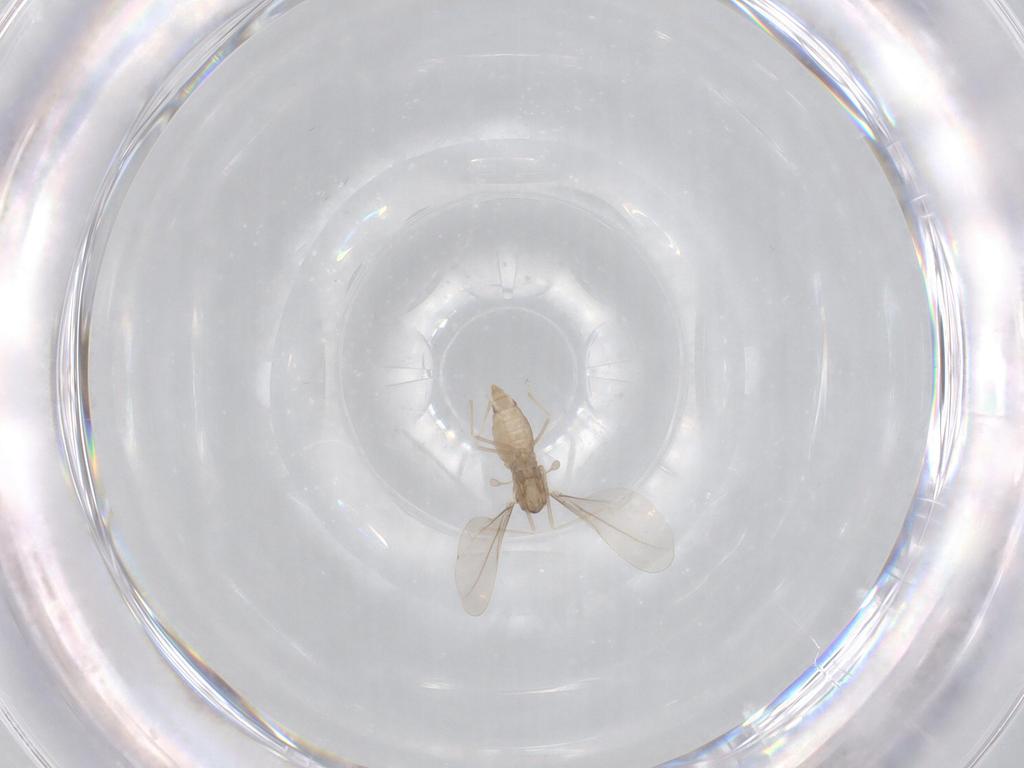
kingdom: Animalia
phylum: Arthropoda
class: Insecta
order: Diptera
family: Cecidomyiidae
